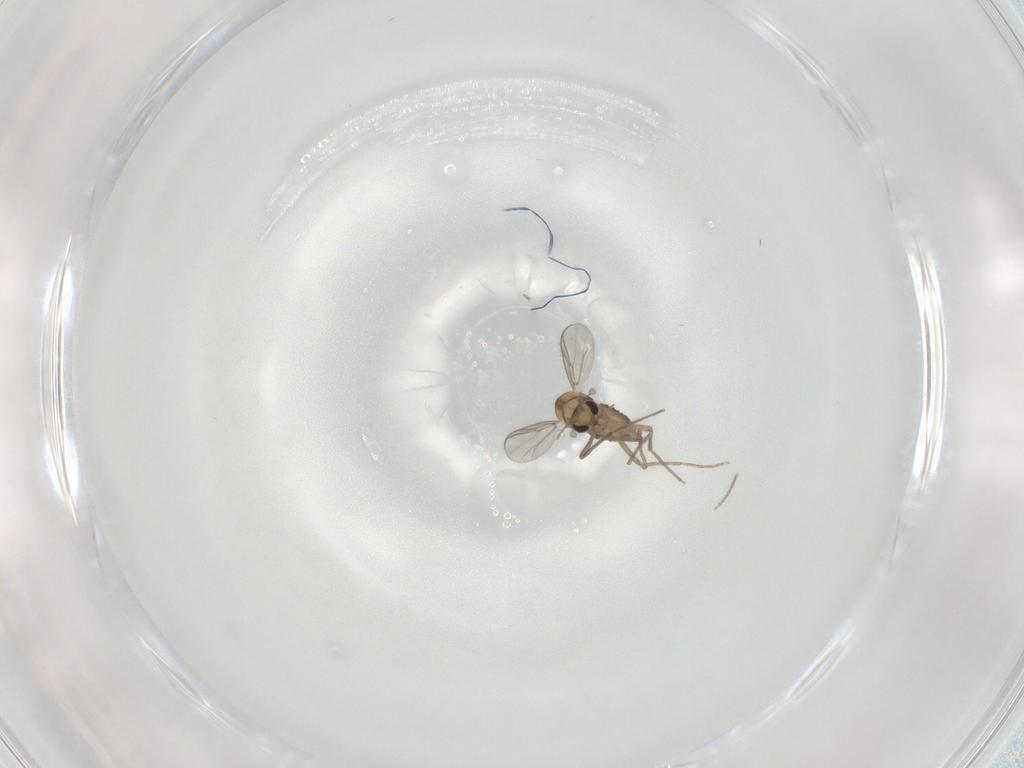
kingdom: Animalia
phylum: Arthropoda
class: Insecta
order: Diptera
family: Chironomidae
